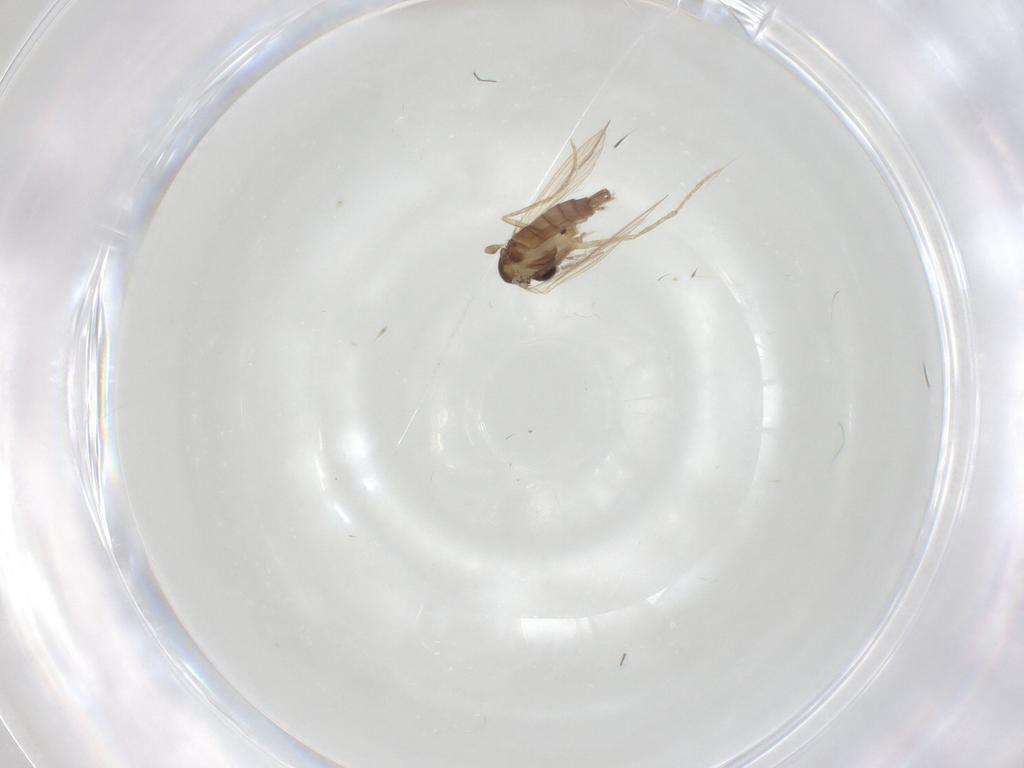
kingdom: Animalia
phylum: Arthropoda
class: Insecta
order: Diptera
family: Psychodidae
